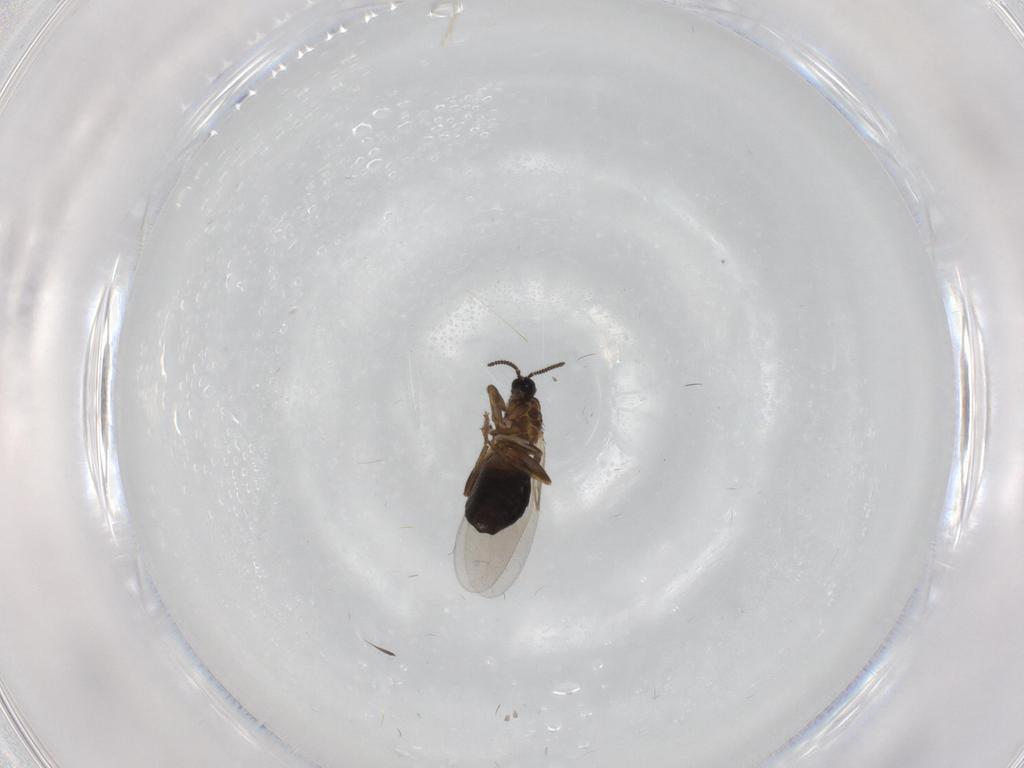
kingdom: Animalia
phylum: Arthropoda
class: Insecta
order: Diptera
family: Scatopsidae
